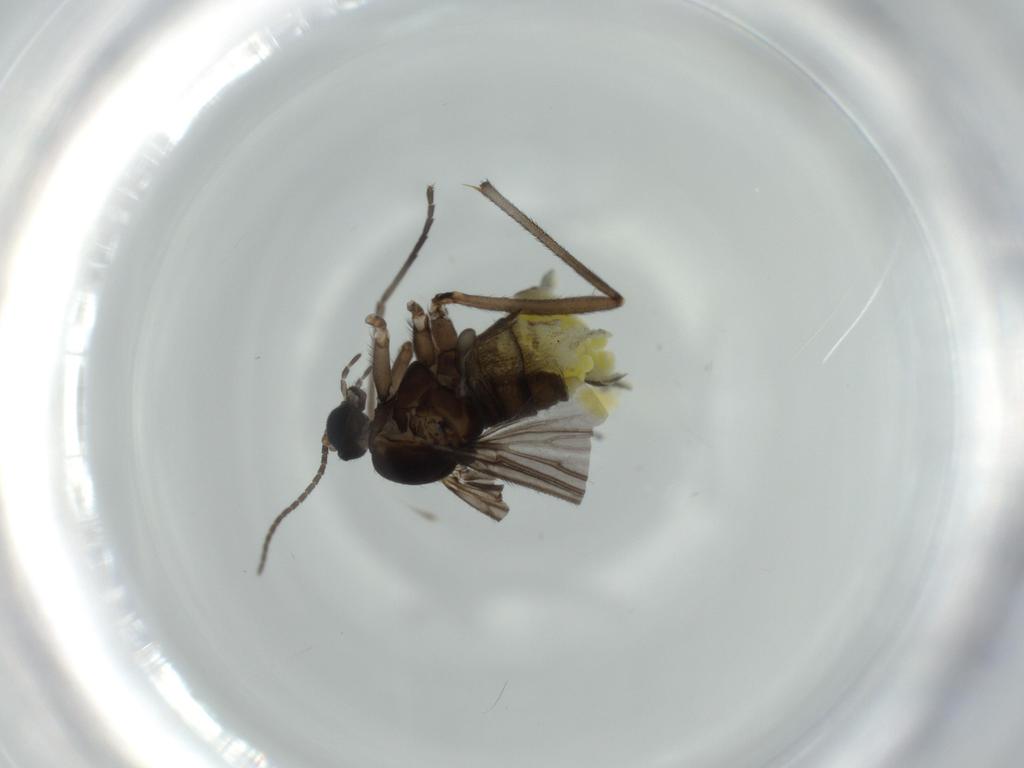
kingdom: Animalia
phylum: Arthropoda
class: Insecta
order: Diptera
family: Sciaridae
